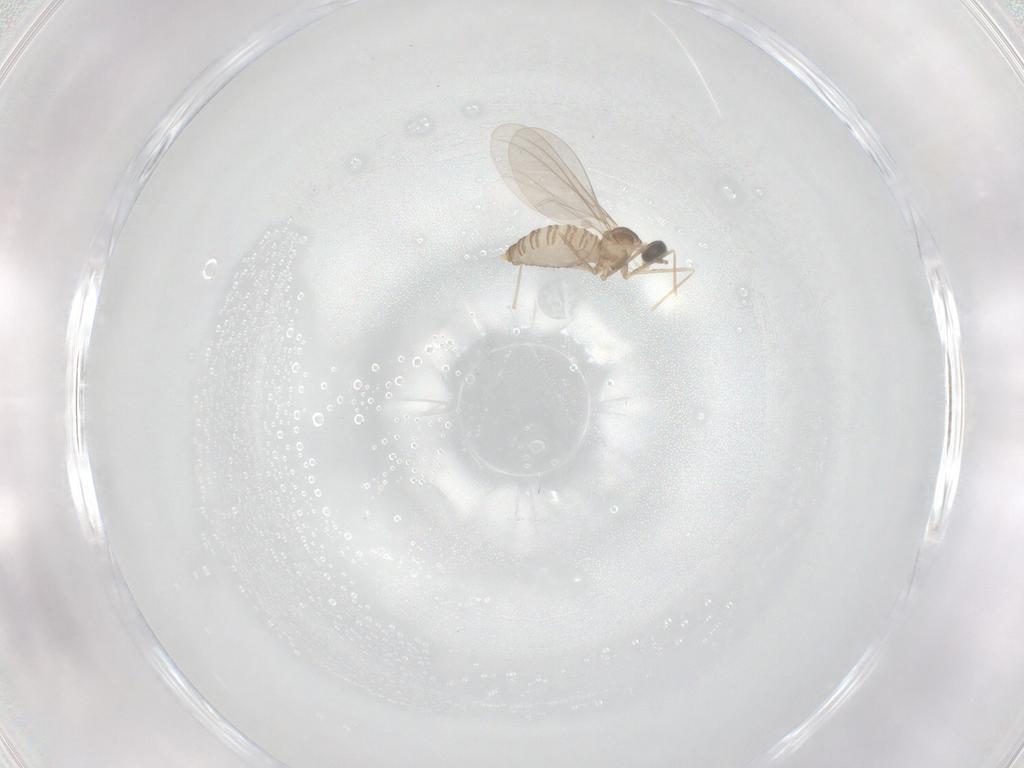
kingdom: Animalia
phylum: Arthropoda
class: Insecta
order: Diptera
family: Cecidomyiidae
